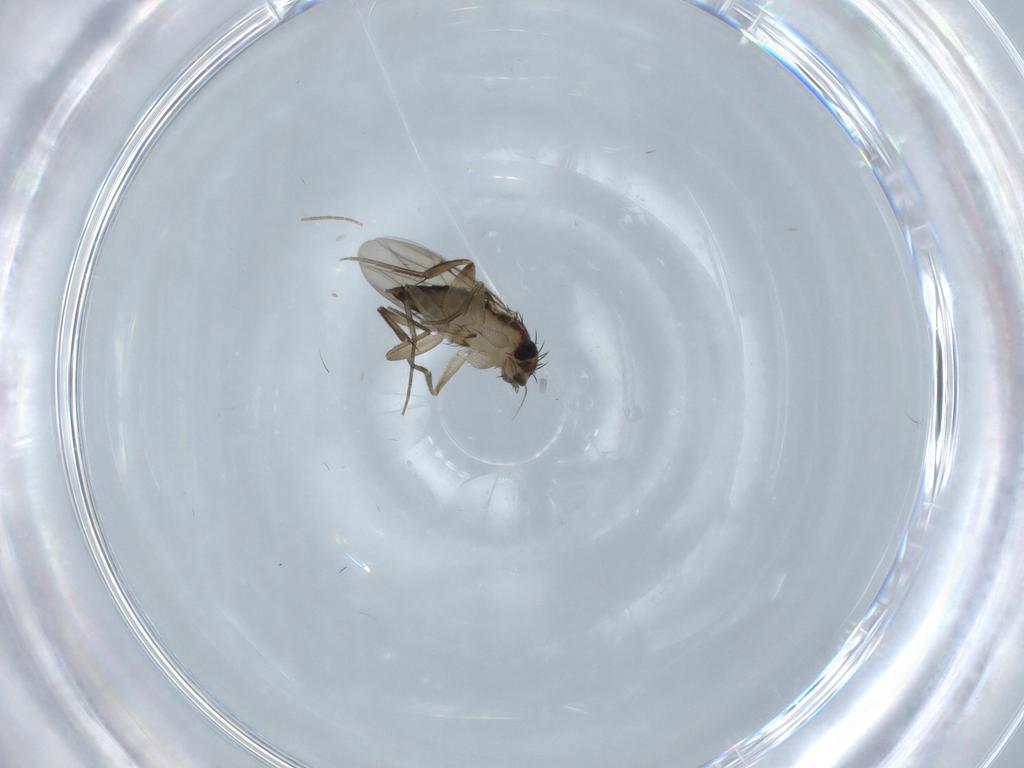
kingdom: Animalia
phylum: Arthropoda
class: Insecta
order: Diptera
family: Phoridae
